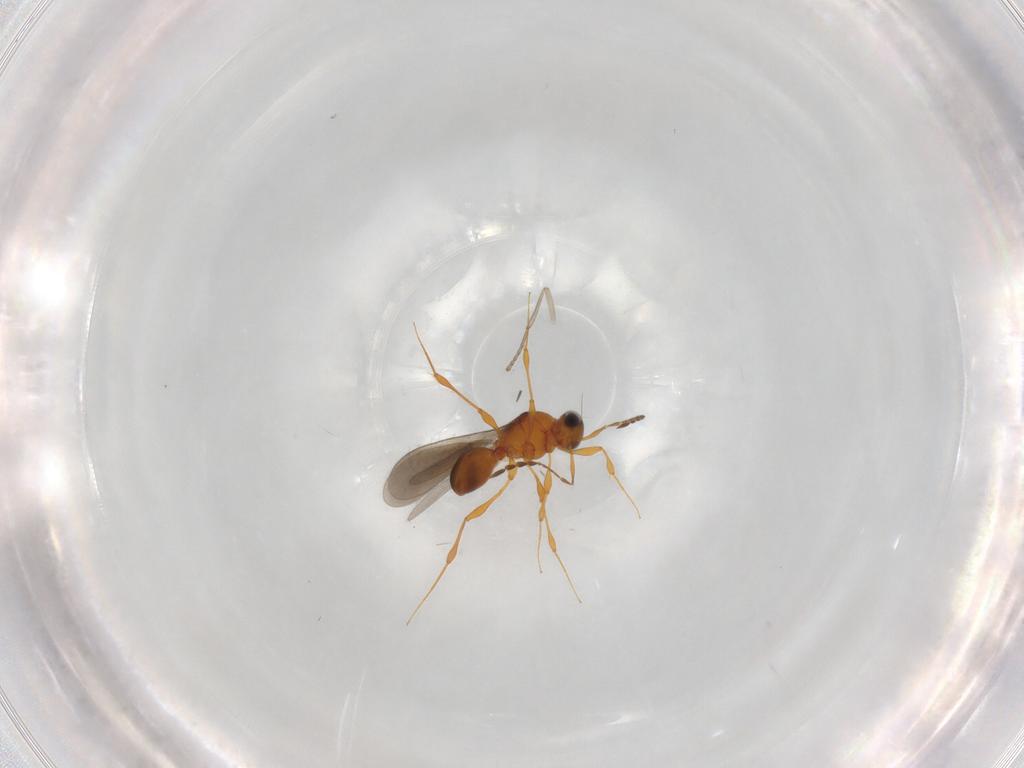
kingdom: Animalia
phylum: Arthropoda
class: Insecta
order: Hymenoptera
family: Platygastridae
